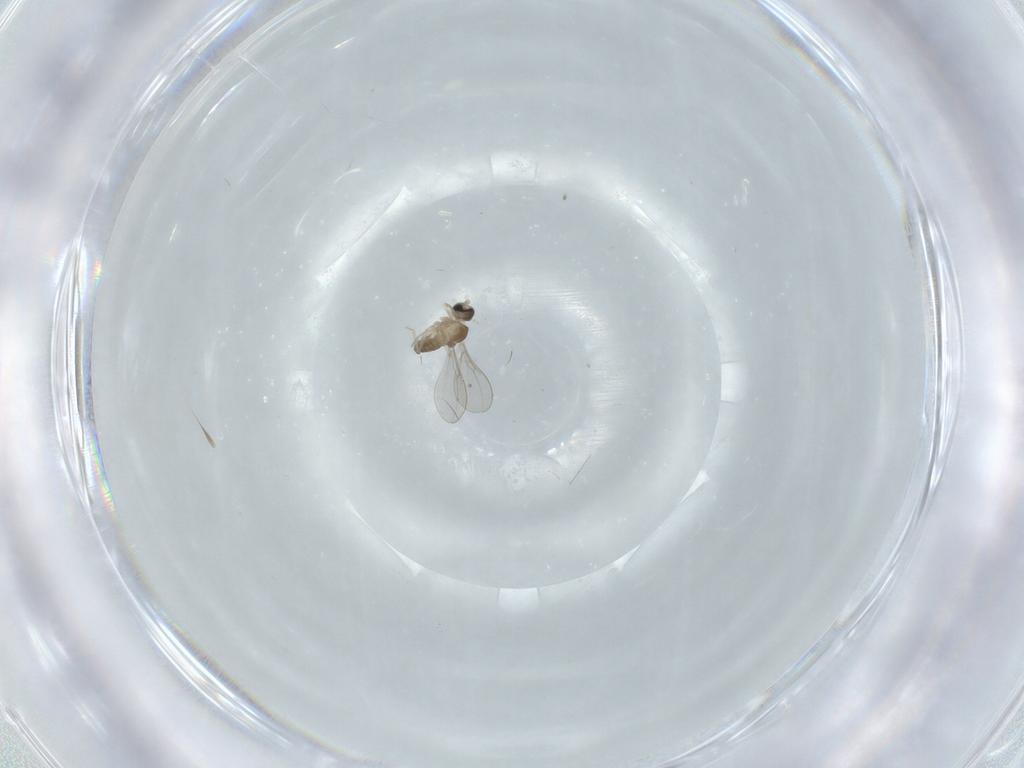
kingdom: Animalia
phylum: Arthropoda
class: Insecta
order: Diptera
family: Cecidomyiidae
